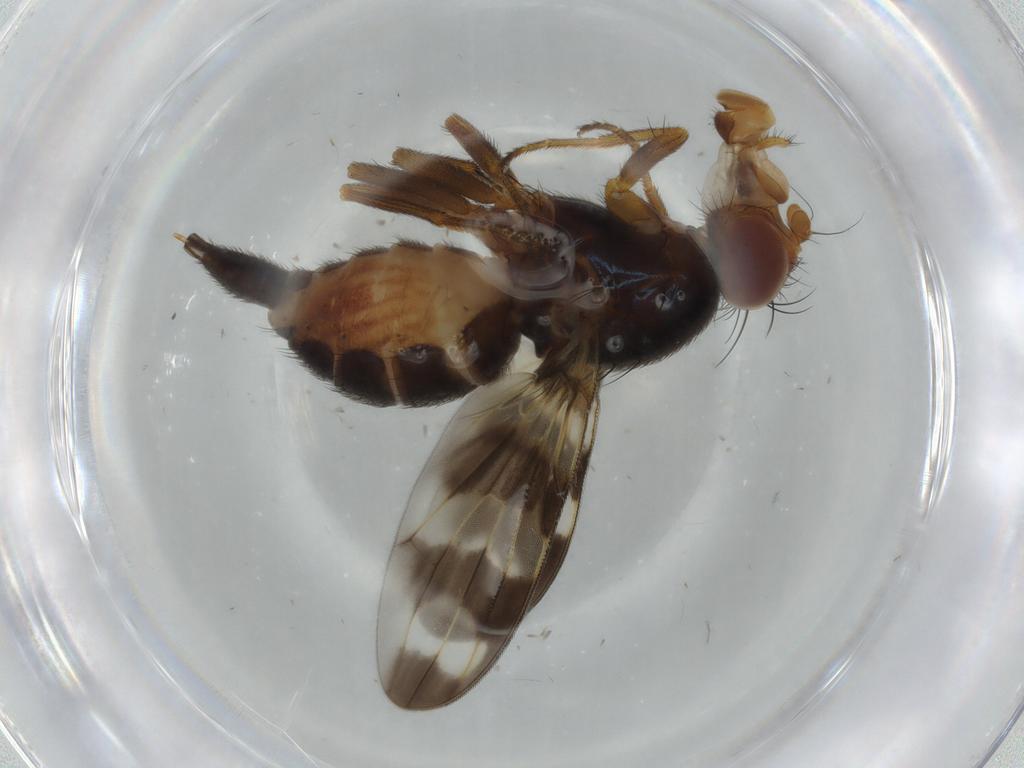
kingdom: Animalia
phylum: Arthropoda
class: Insecta
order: Diptera
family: Ulidiidae
